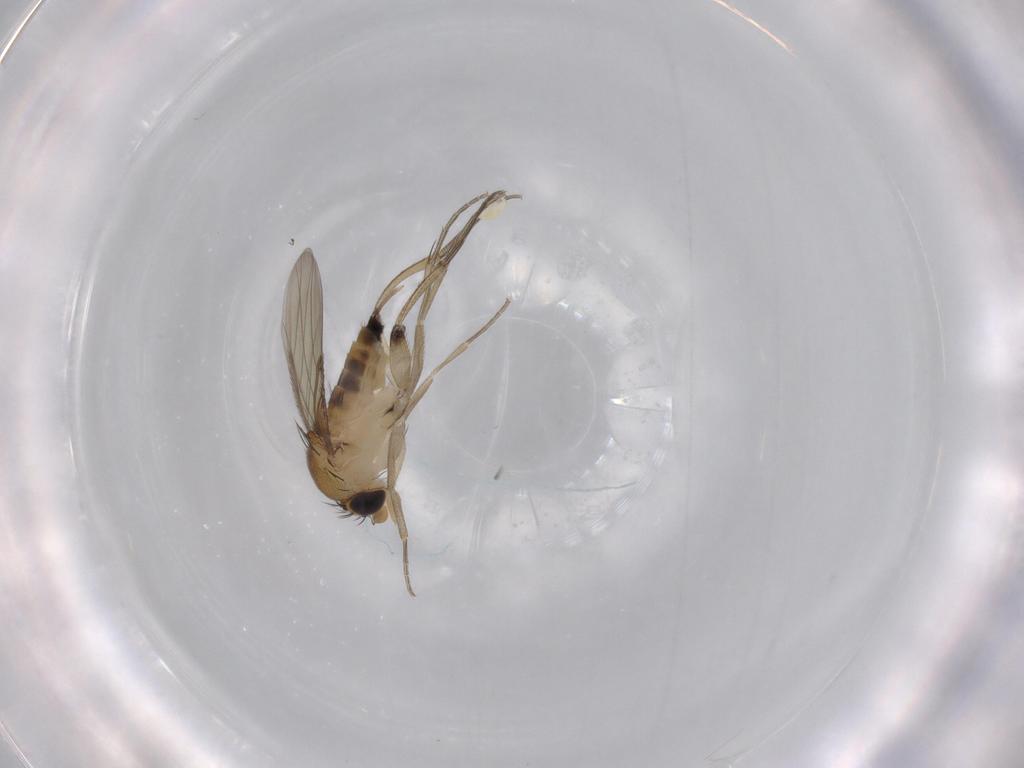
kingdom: Animalia
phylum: Arthropoda
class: Insecta
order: Diptera
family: Phoridae
